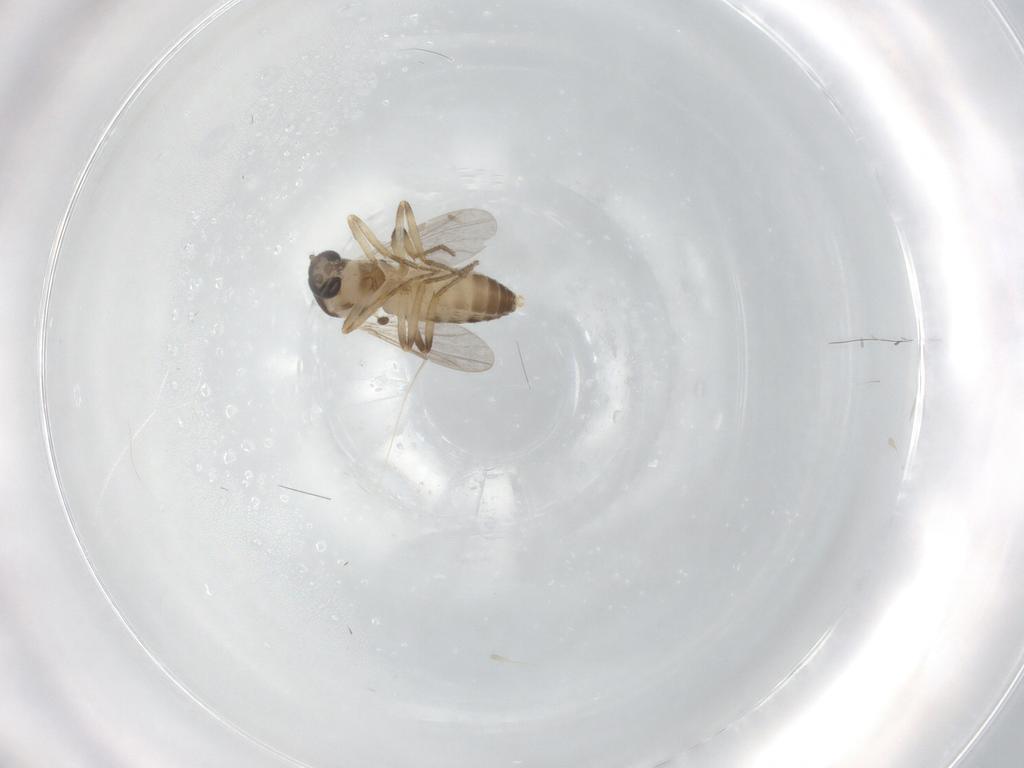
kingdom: Animalia
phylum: Arthropoda
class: Insecta
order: Diptera
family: Ceratopogonidae
